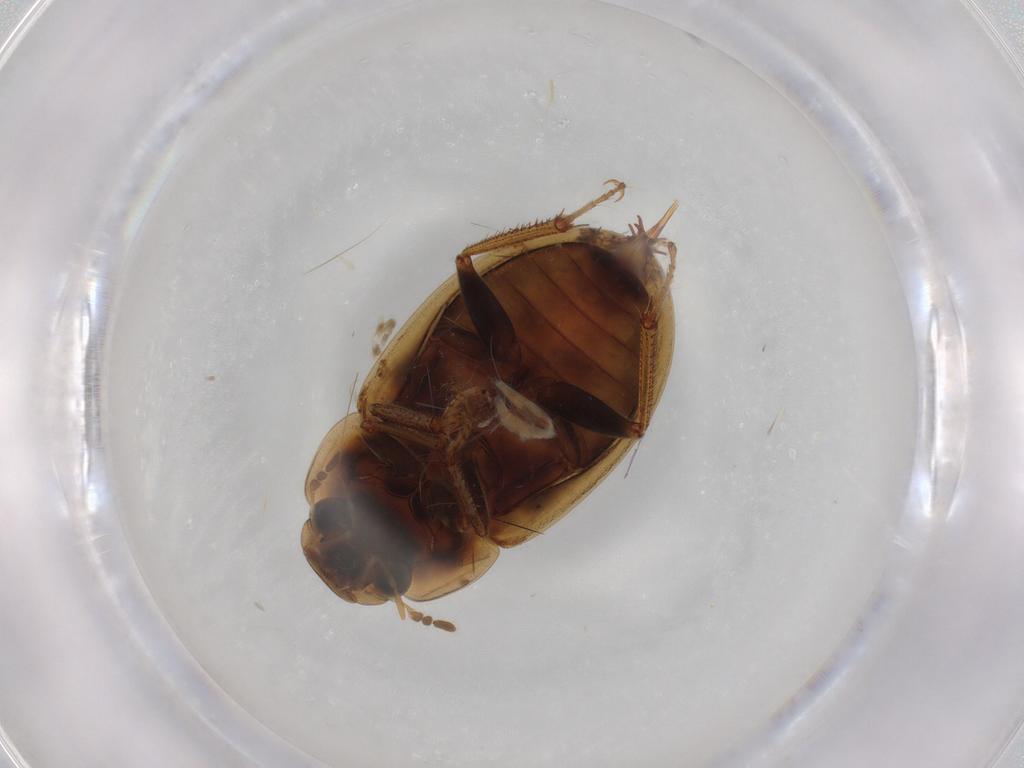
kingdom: Animalia
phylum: Arthropoda
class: Insecta
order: Coleoptera
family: Hydrophilidae
